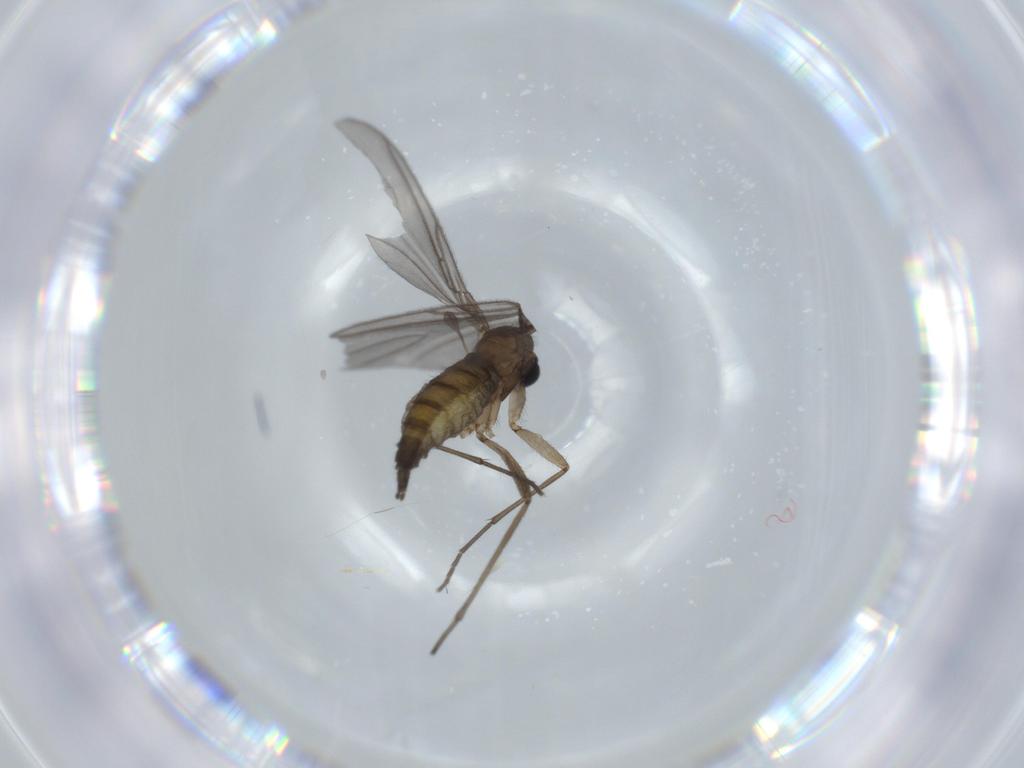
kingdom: Animalia
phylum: Arthropoda
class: Insecta
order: Diptera
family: Sciaridae
